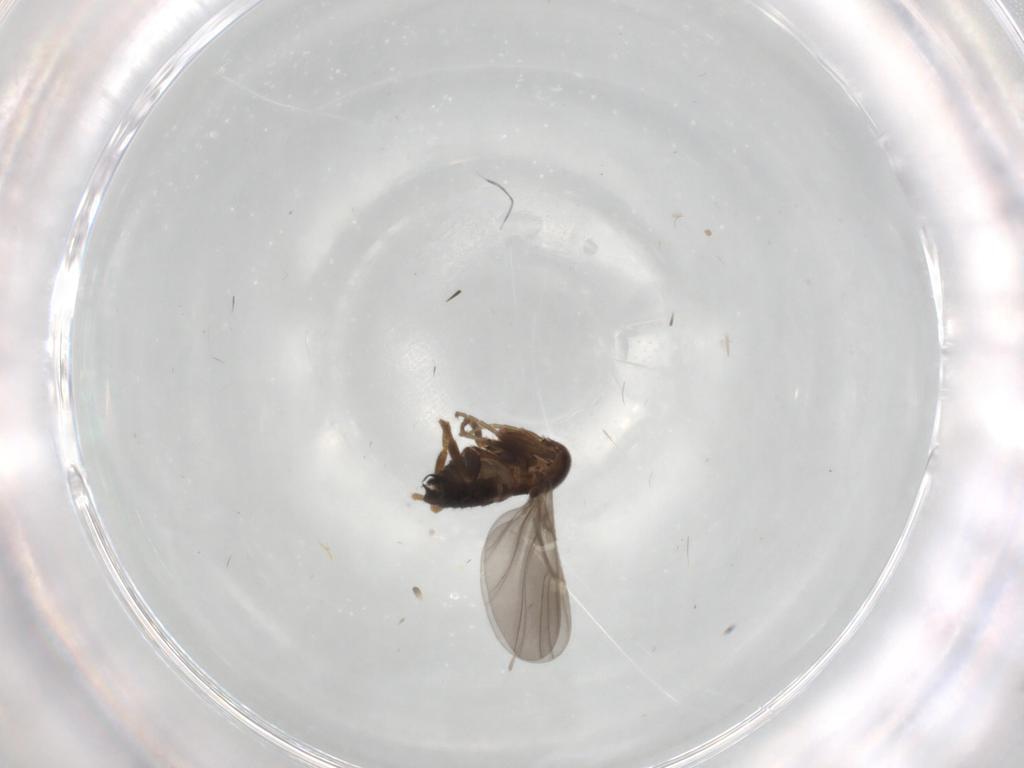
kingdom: Animalia
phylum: Arthropoda
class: Insecta
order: Diptera
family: Phoridae
